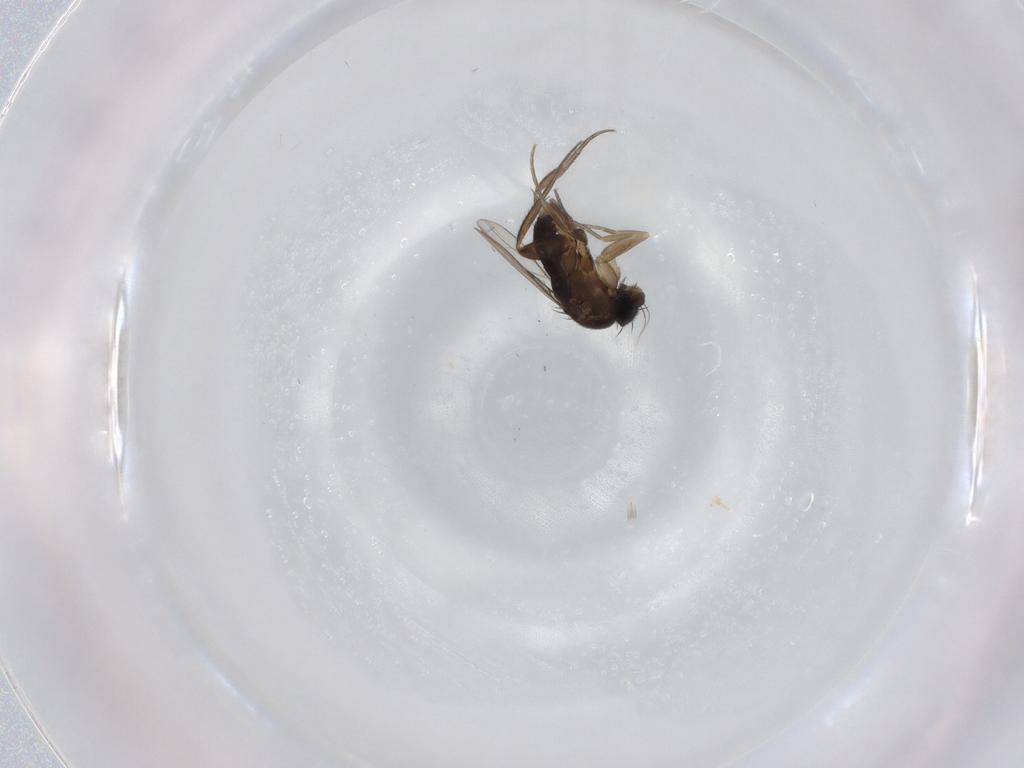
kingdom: Animalia
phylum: Arthropoda
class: Insecta
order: Diptera
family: Phoridae
